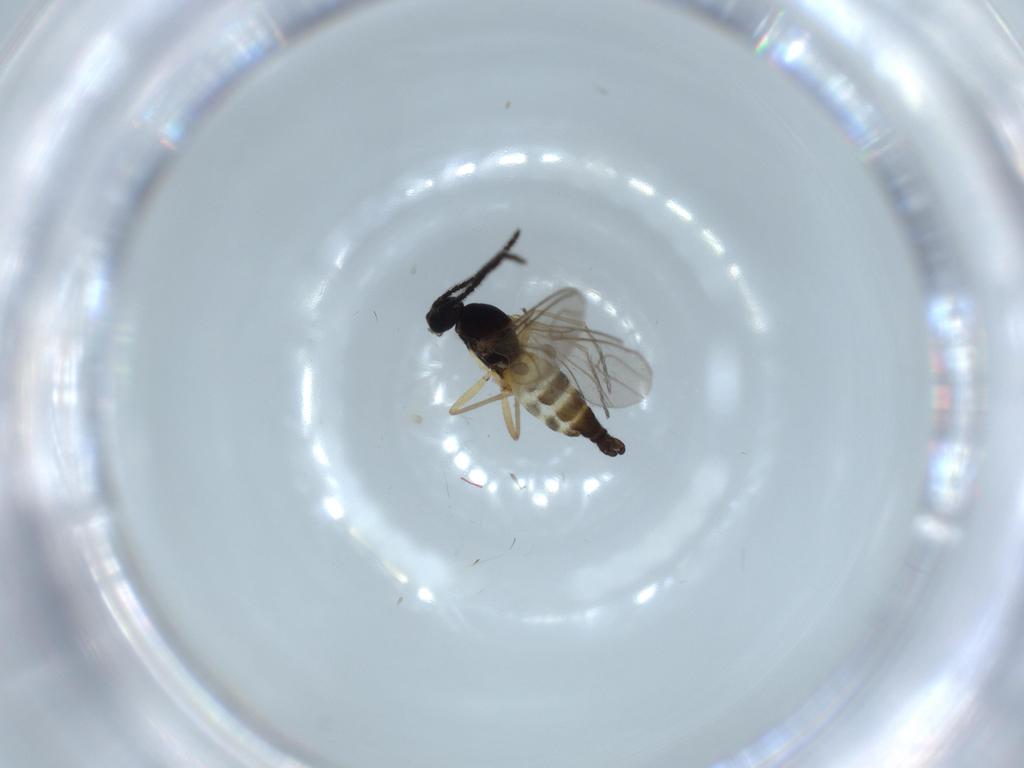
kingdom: Animalia
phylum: Arthropoda
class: Insecta
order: Diptera
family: Sciaridae
